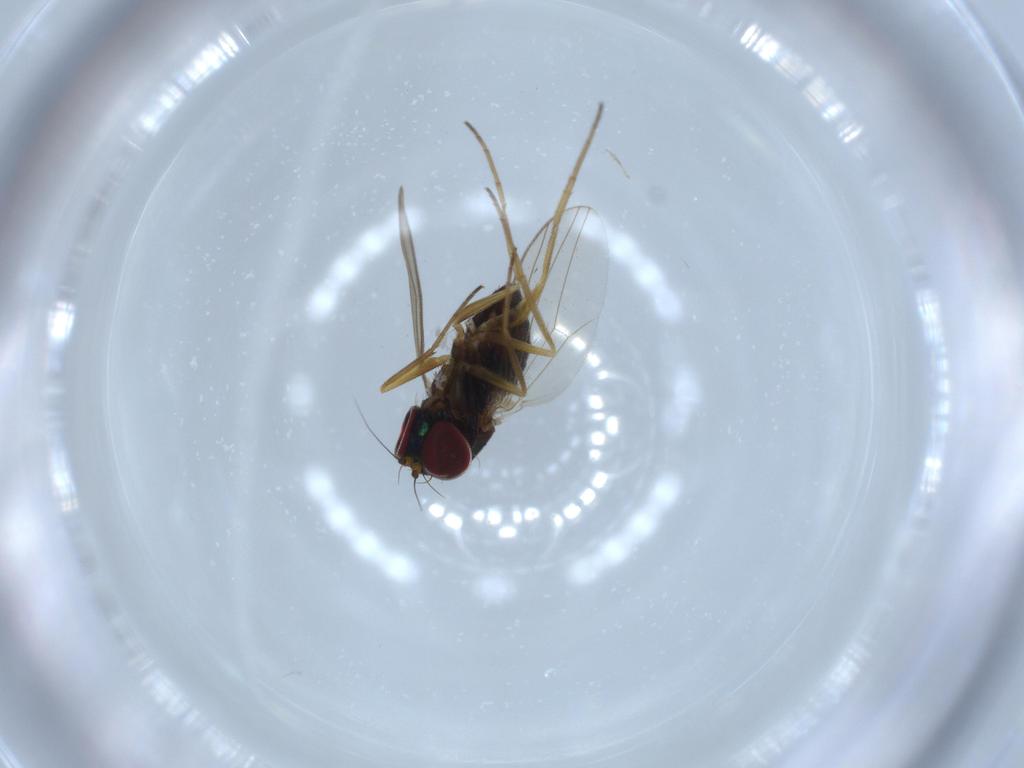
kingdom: Animalia
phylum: Arthropoda
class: Insecta
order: Diptera
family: Dolichopodidae
